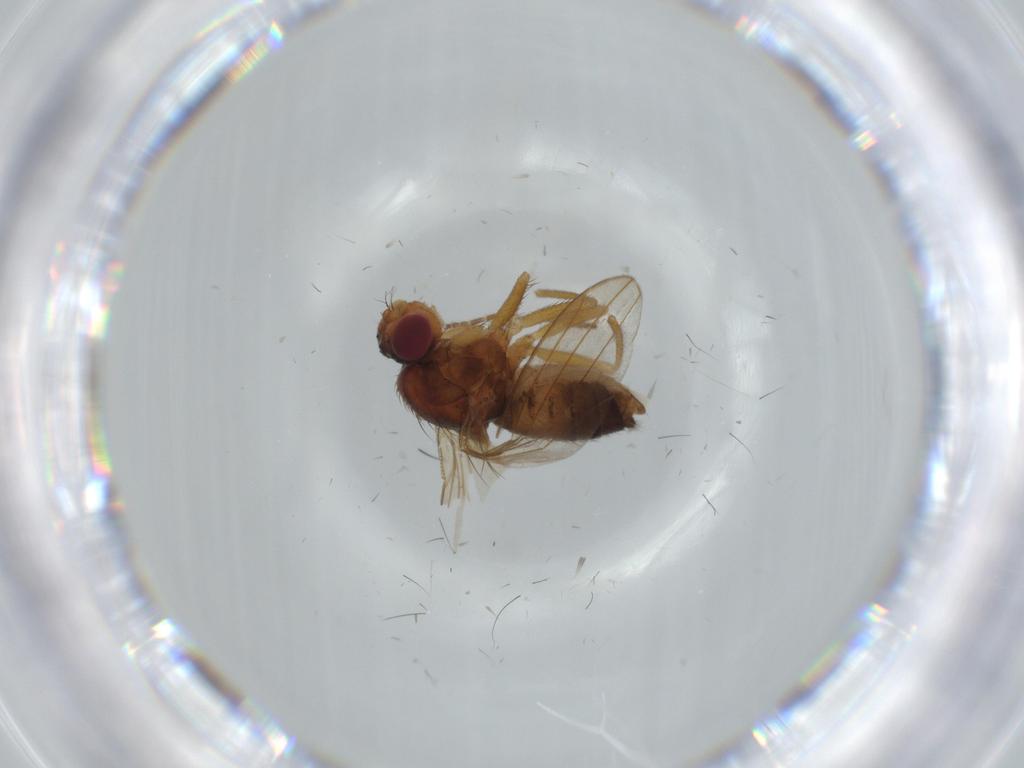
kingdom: Animalia
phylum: Arthropoda
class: Insecta
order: Diptera
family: Drosophilidae
